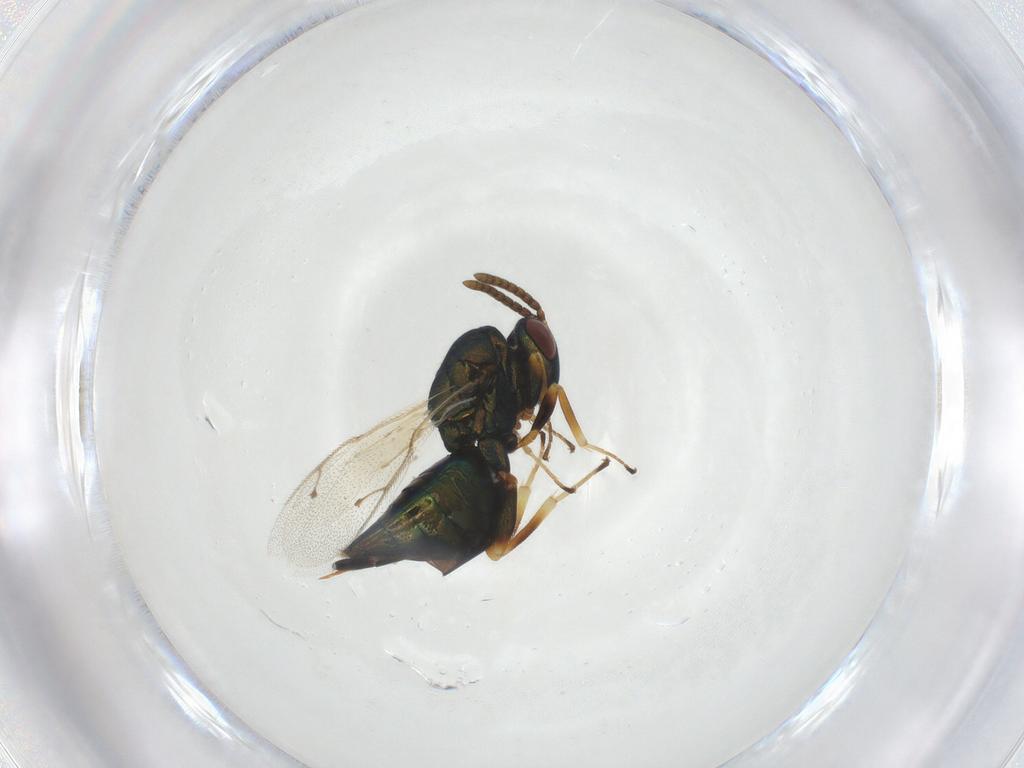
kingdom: Animalia
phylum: Arthropoda
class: Insecta
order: Hymenoptera
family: Pteromalidae
